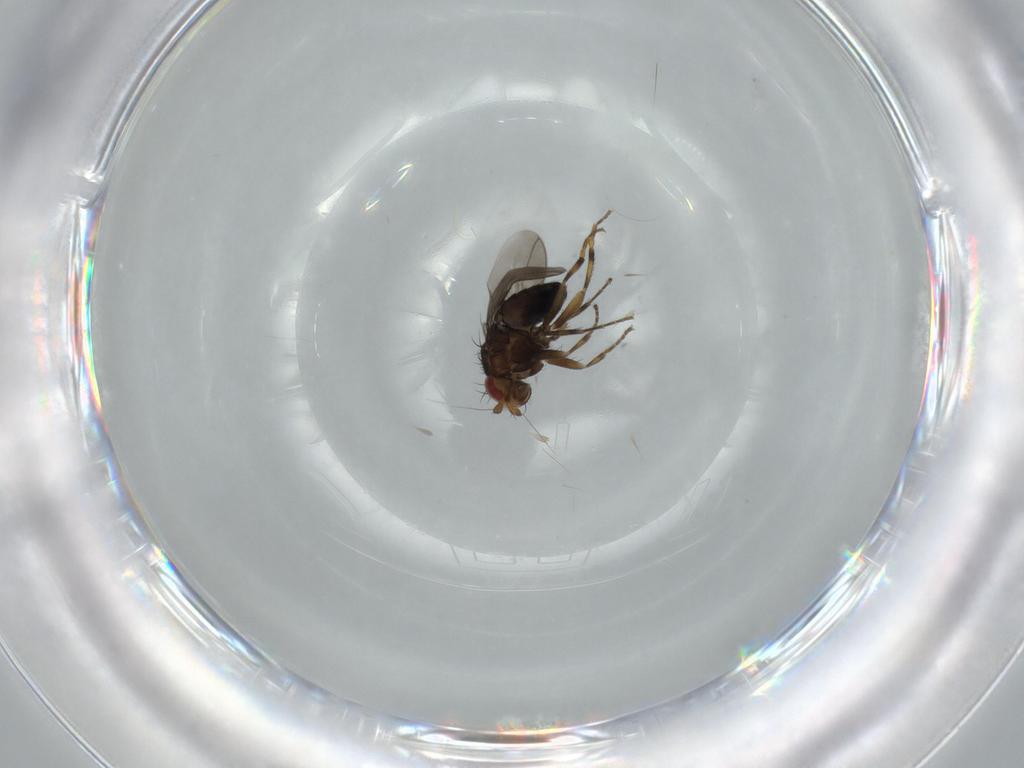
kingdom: Animalia
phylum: Arthropoda
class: Insecta
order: Diptera
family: Sphaeroceridae
